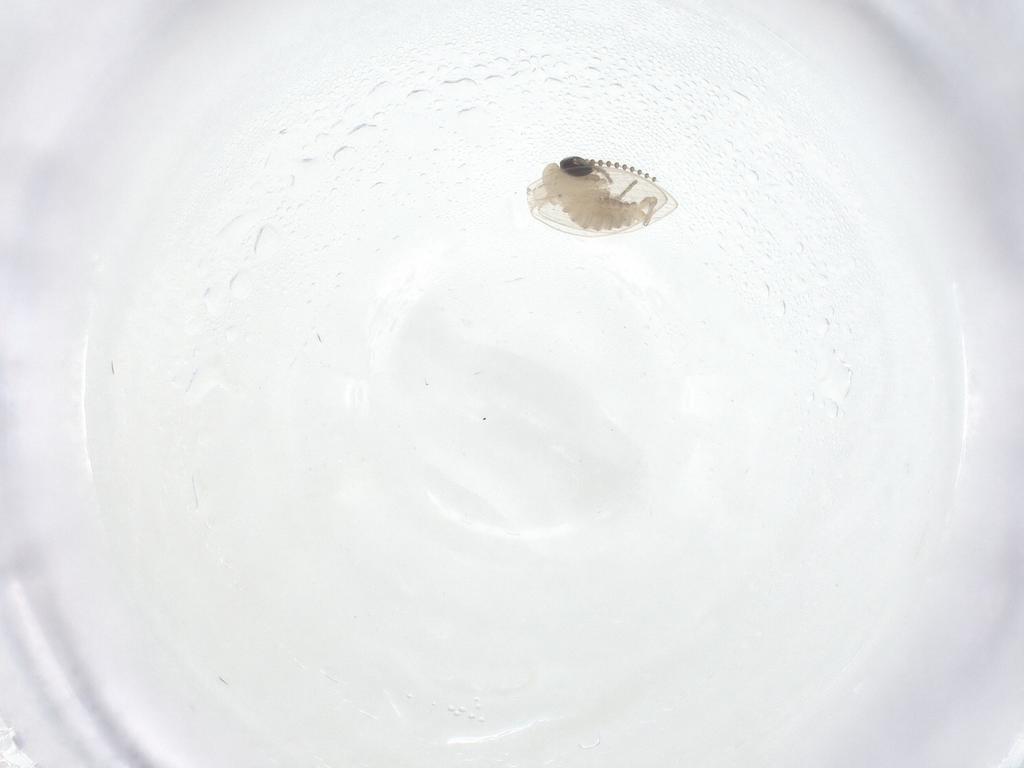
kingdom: Animalia
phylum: Arthropoda
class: Insecta
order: Diptera
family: Psychodidae
